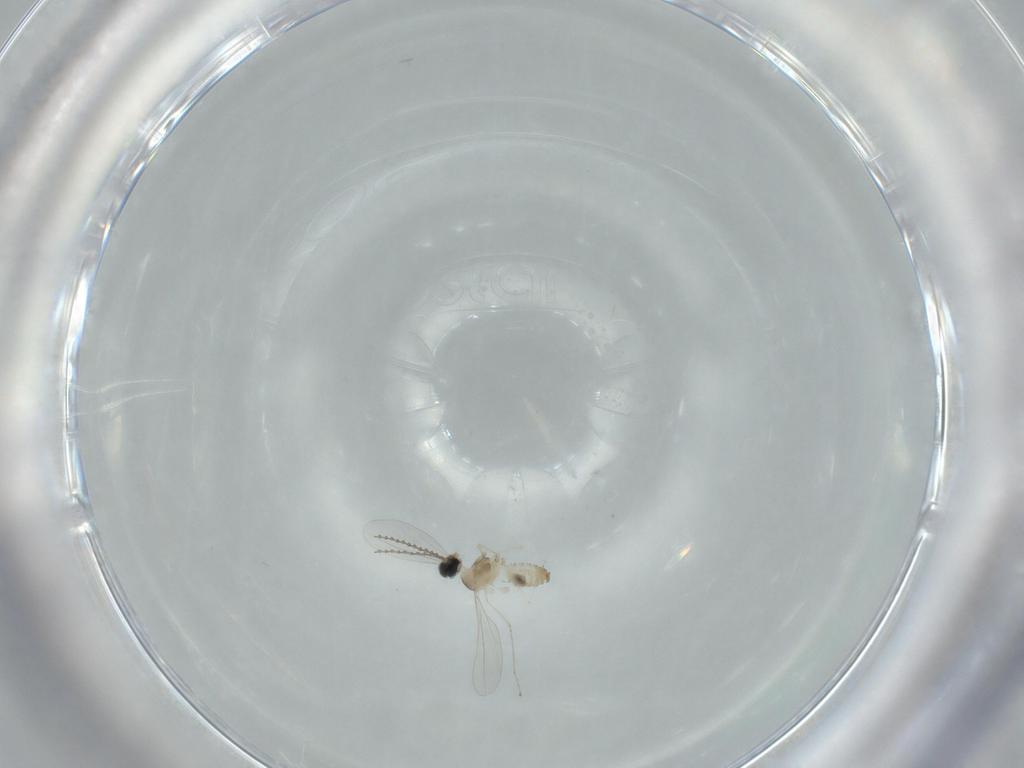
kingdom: Animalia
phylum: Arthropoda
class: Insecta
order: Diptera
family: Cecidomyiidae
